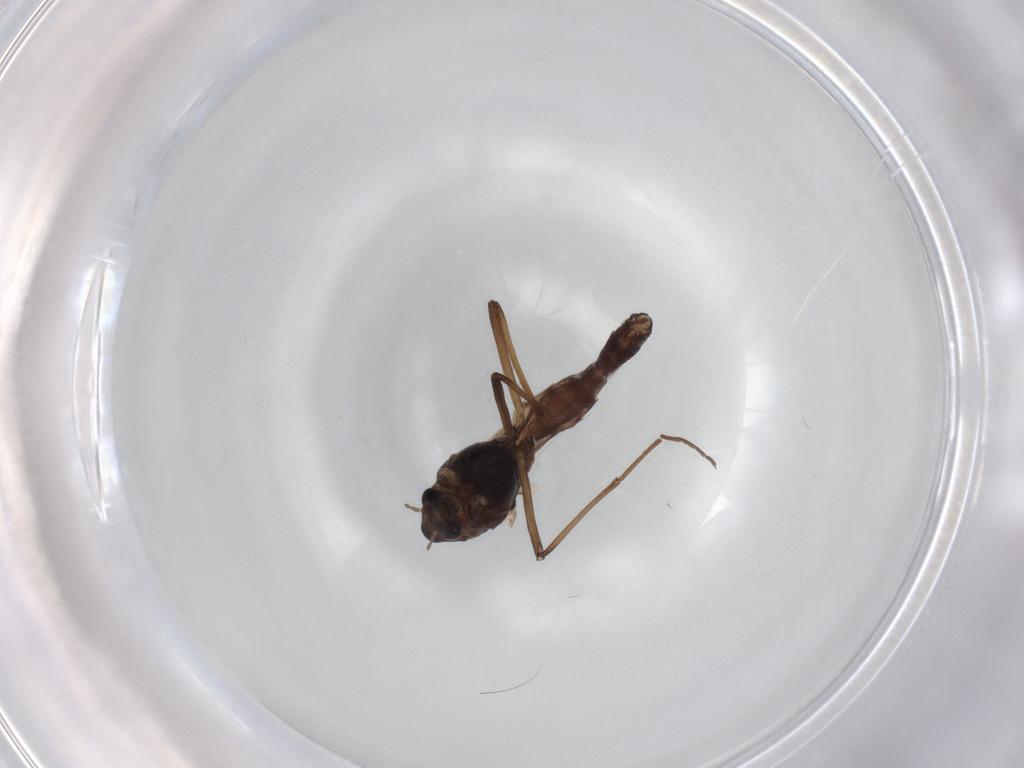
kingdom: Animalia
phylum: Arthropoda
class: Insecta
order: Diptera
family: Chironomidae
